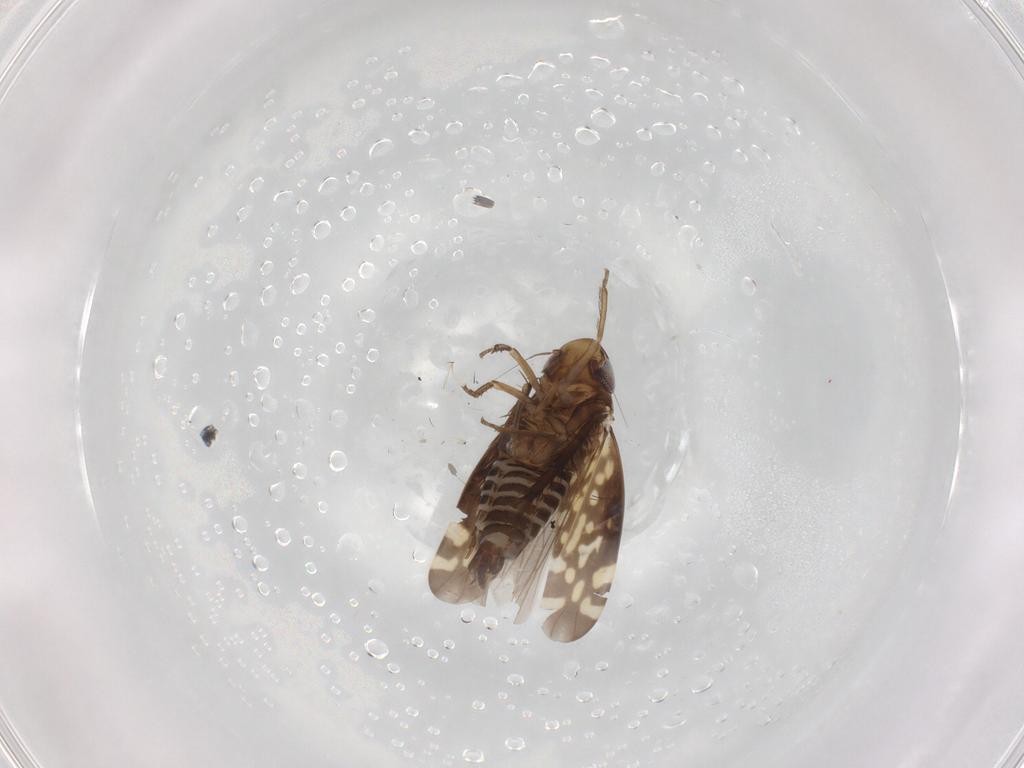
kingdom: Animalia
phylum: Arthropoda
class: Insecta
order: Hemiptera
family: Cicadellidae
